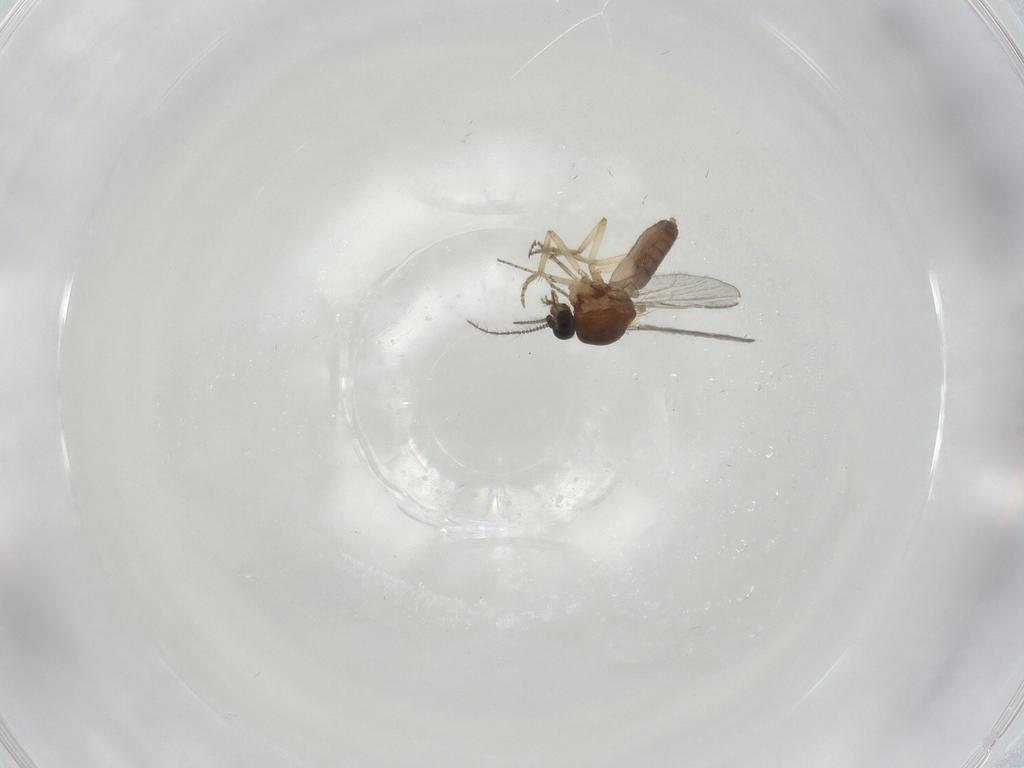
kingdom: Animalia
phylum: Arthropoda
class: Insecta
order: Diptera
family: Ceratopogonidae
